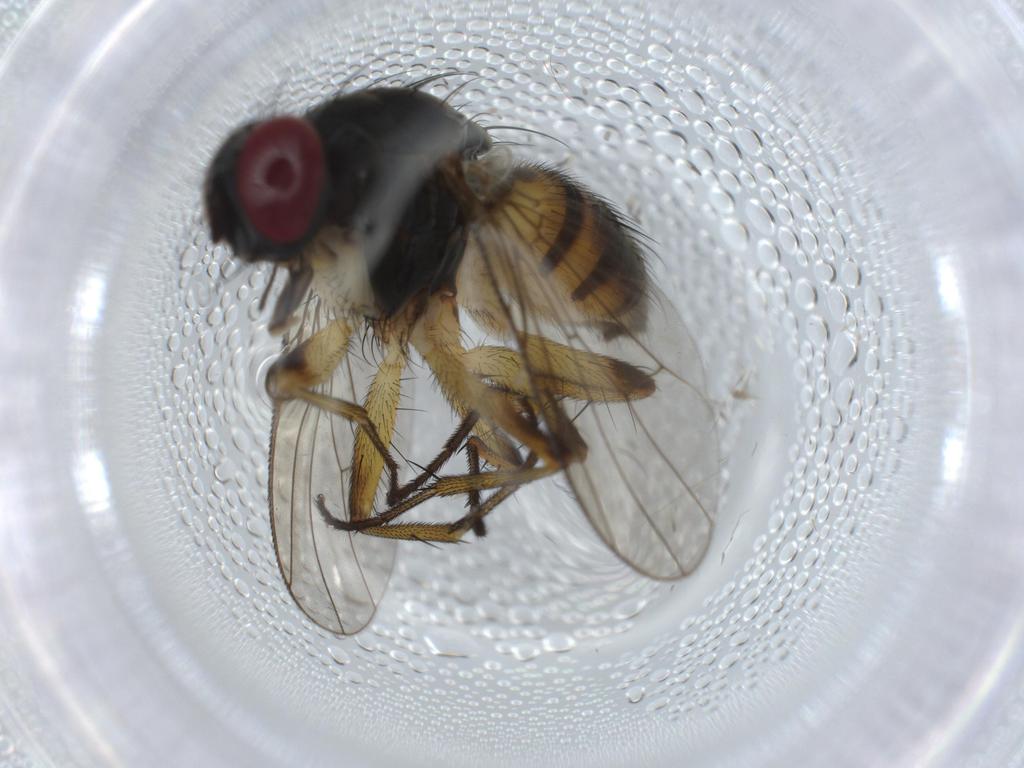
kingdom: Animalia
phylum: Arthropoda
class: Insecta
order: Diptera
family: Muscidae
